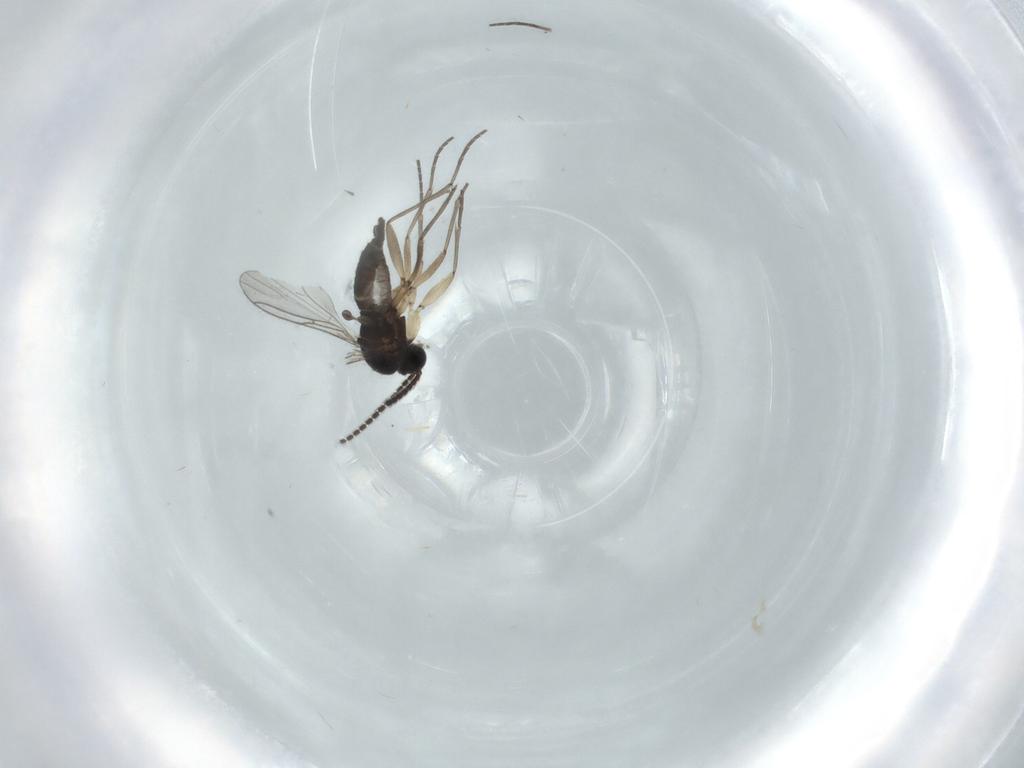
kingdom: Animalia
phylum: Arthropoda
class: Insecta
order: Diptera
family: Sciaridae
